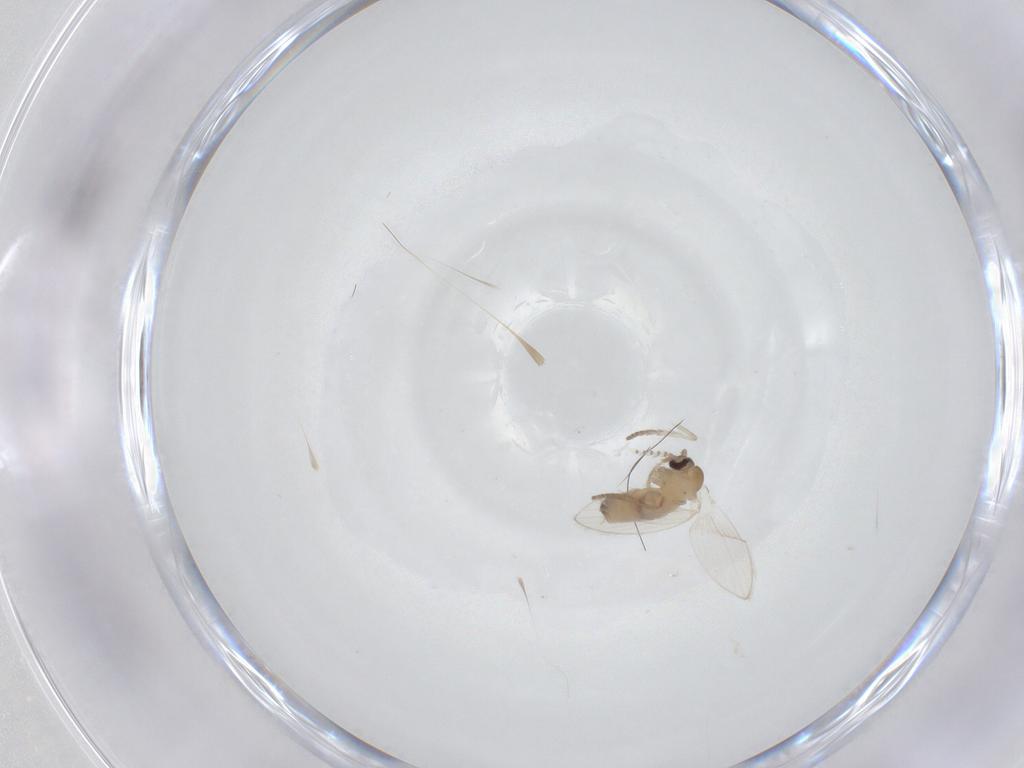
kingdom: Animalia
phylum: Arthropoda
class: Insecta
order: Diptera
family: Psychodidae
